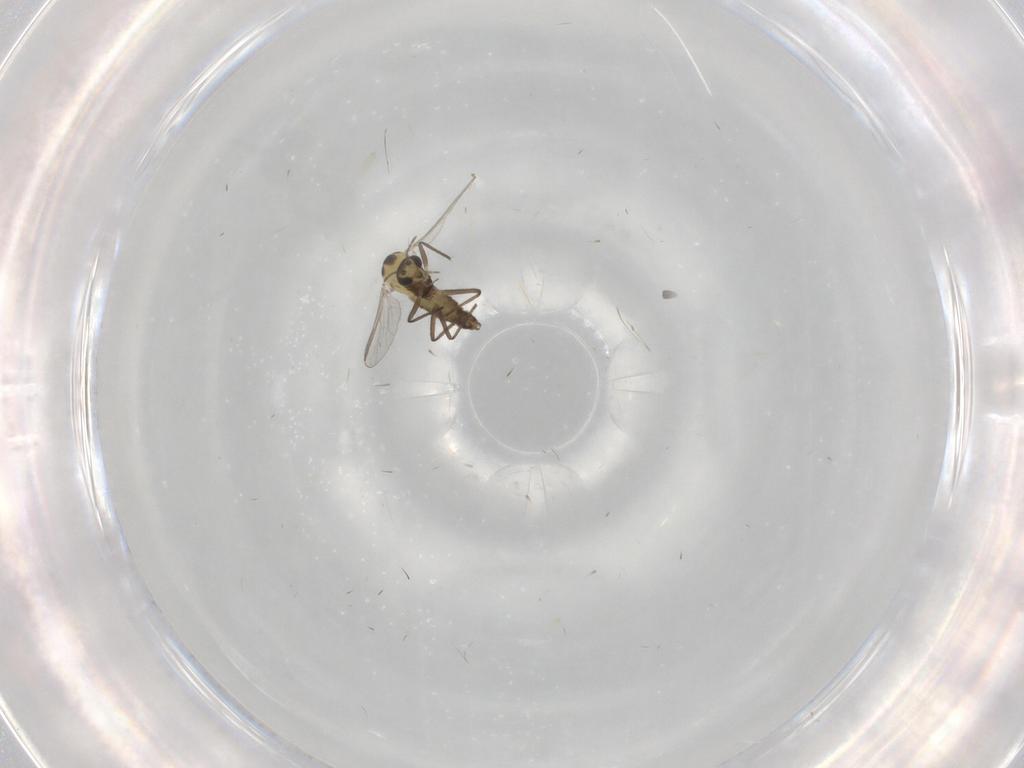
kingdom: Animalia
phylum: Arthropoda
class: Insecta
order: Diptera
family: Chironomidae
